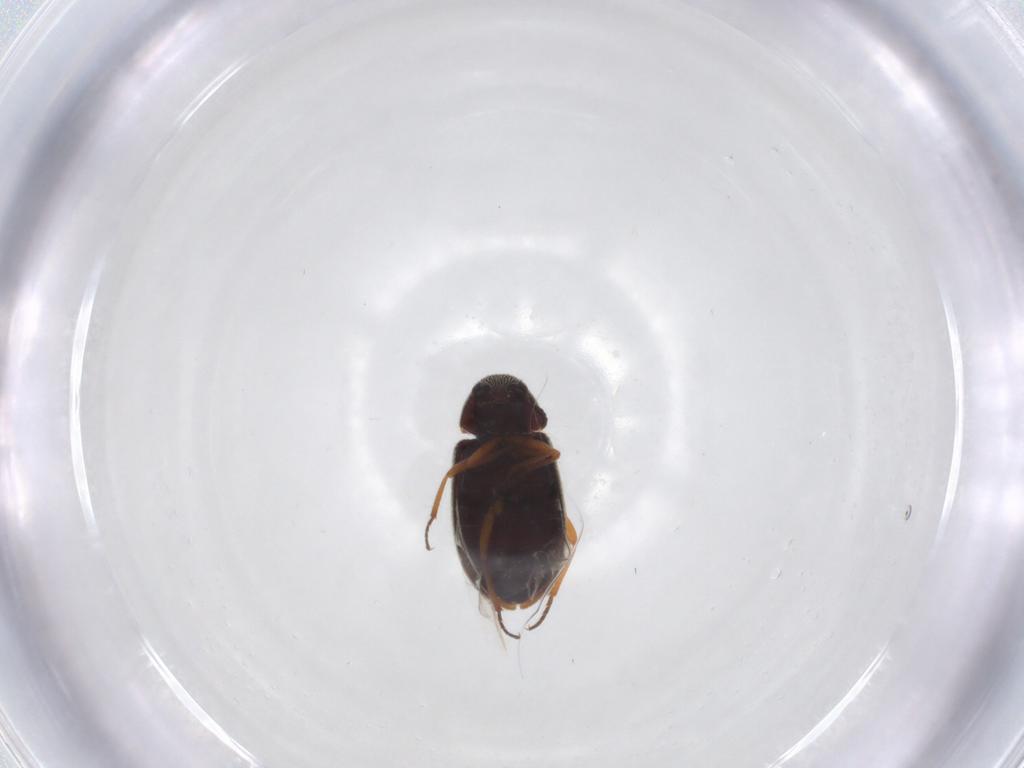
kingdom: Animalia
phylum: Arthropoda
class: Insecta
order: Coleoptera
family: Rhadalidae
